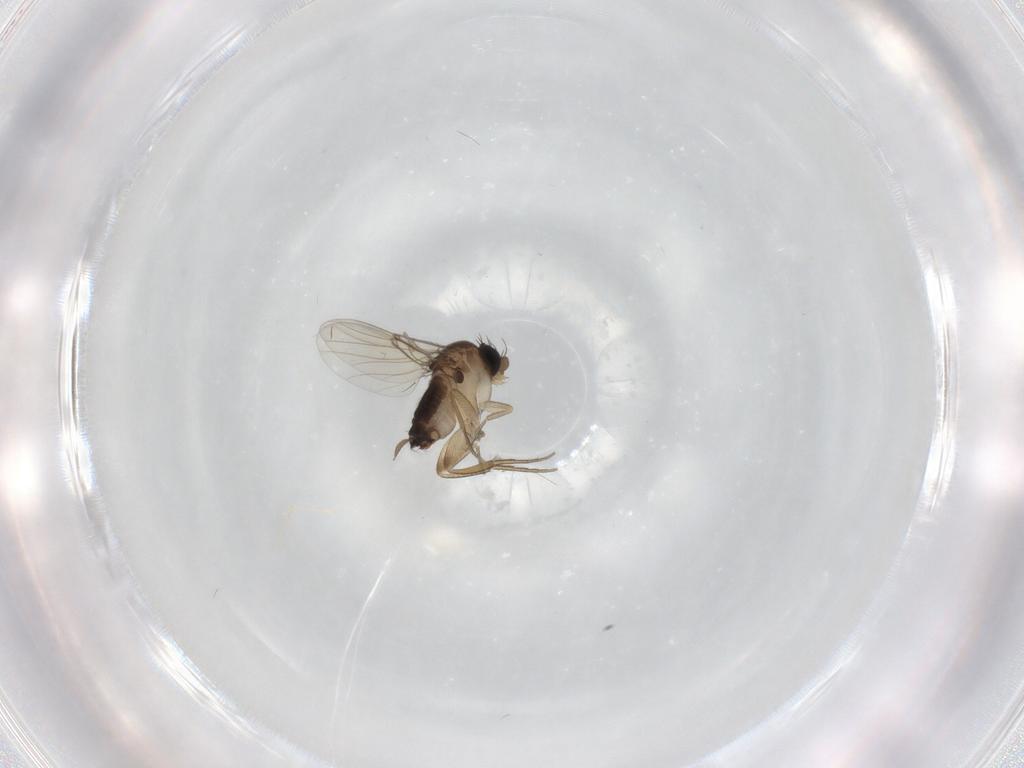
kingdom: Animalia
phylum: Arthropoda
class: Insecta
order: Diptera
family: Cecidomyiidae
